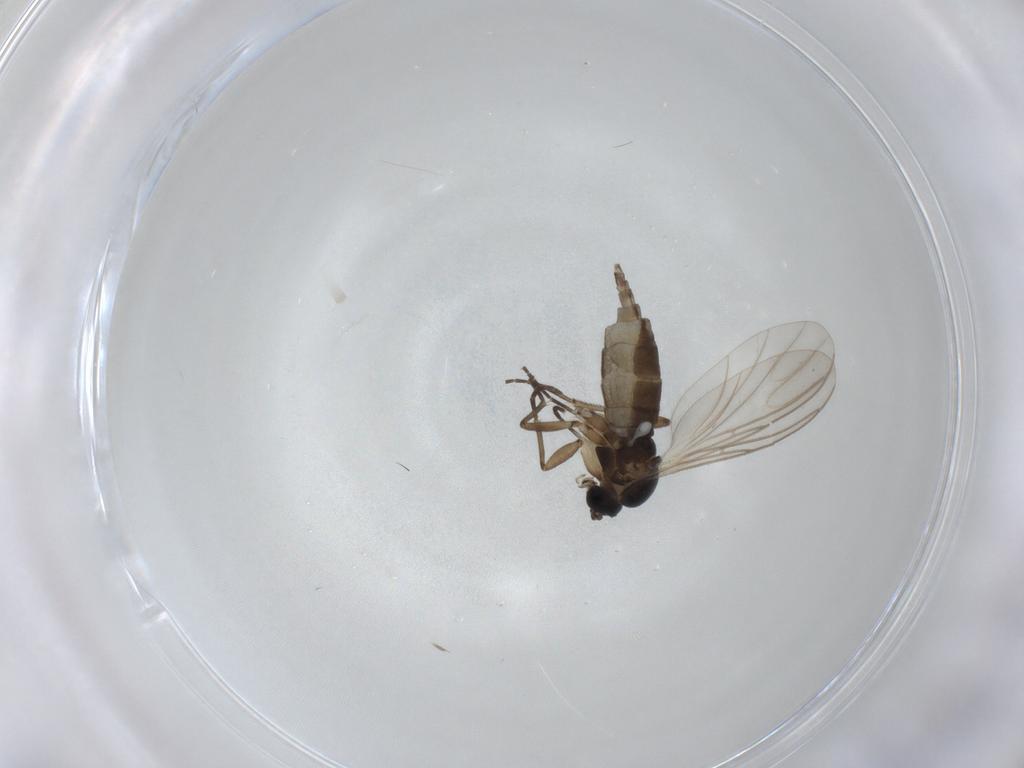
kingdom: Animalia
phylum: Arthropoda
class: Insecta
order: Diptera
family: Empididae
